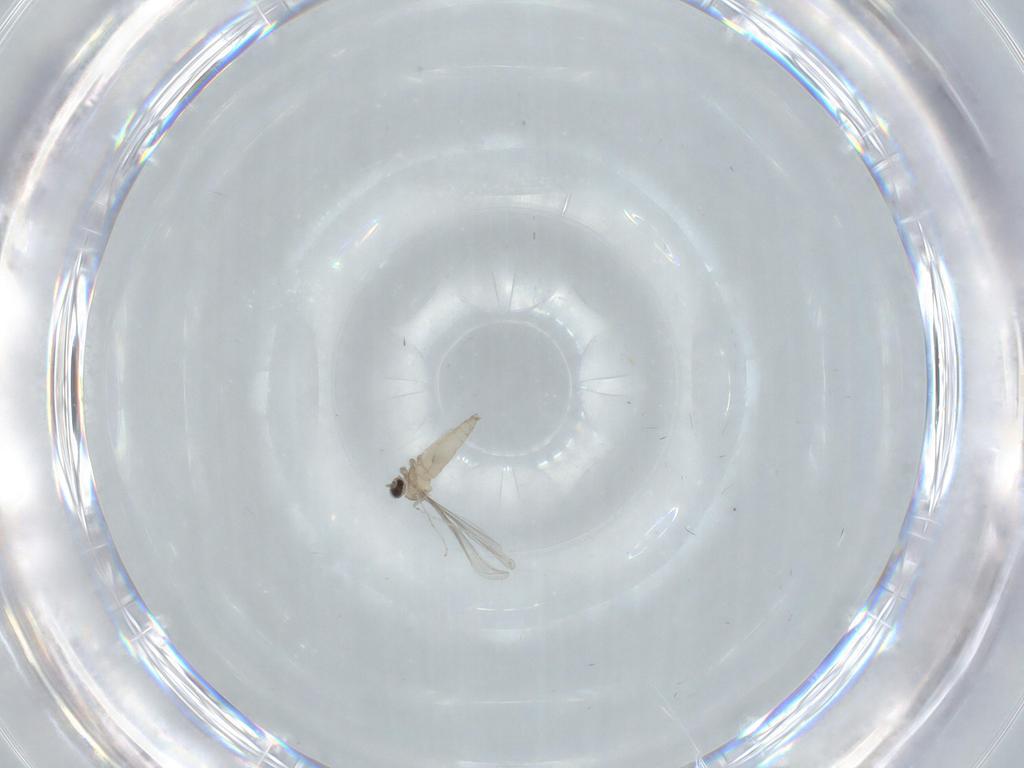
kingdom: Animalia
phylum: Arthropoda
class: Insecta
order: Diptera
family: Cecidomyiidae
